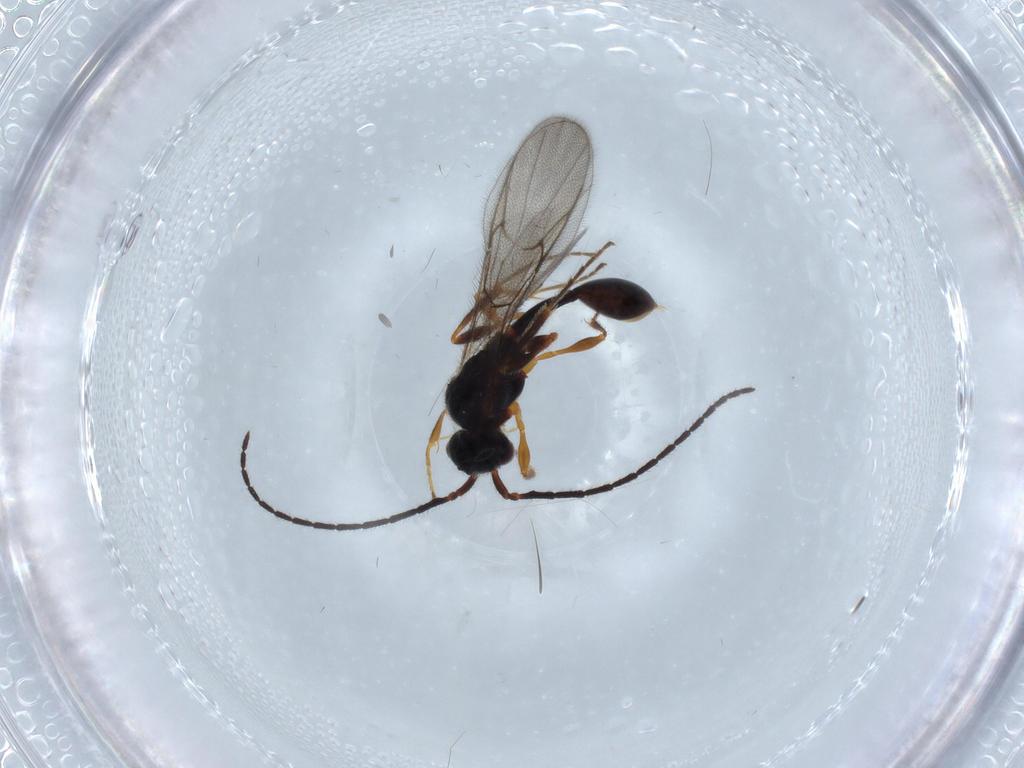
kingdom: Animalia
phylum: Arthropoda
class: Insecta
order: Hymenoptera
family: Diapriidae
